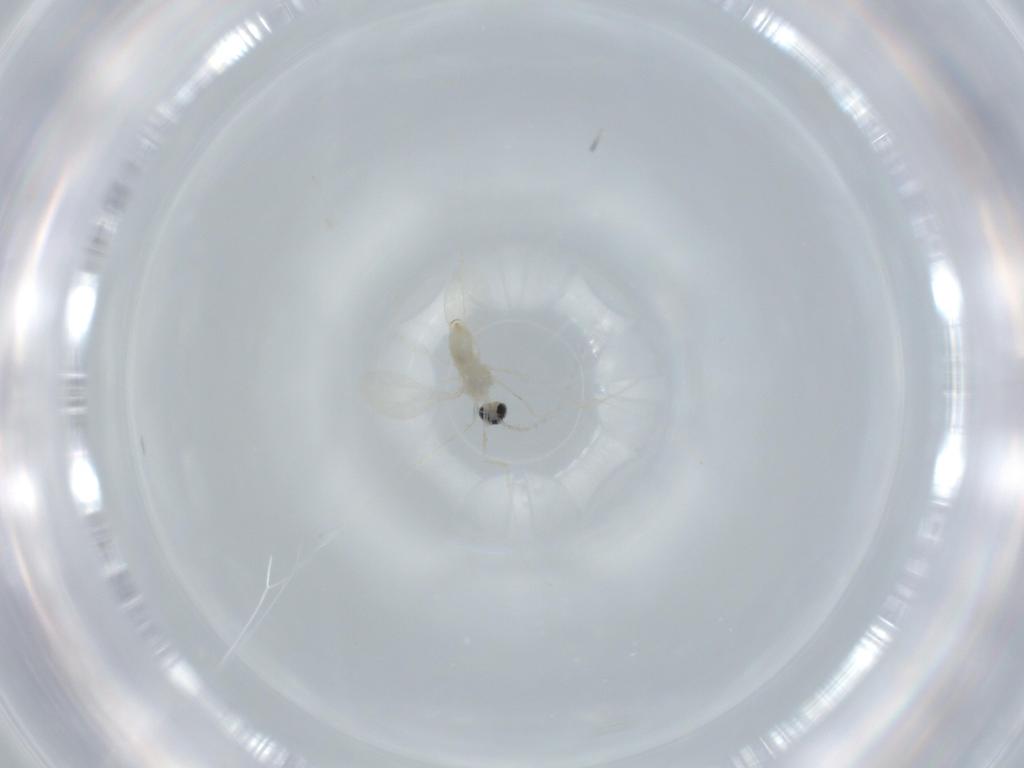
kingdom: Animalia
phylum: Arthropoda
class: Insecta
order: Diptera
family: Cecidomyiidae
